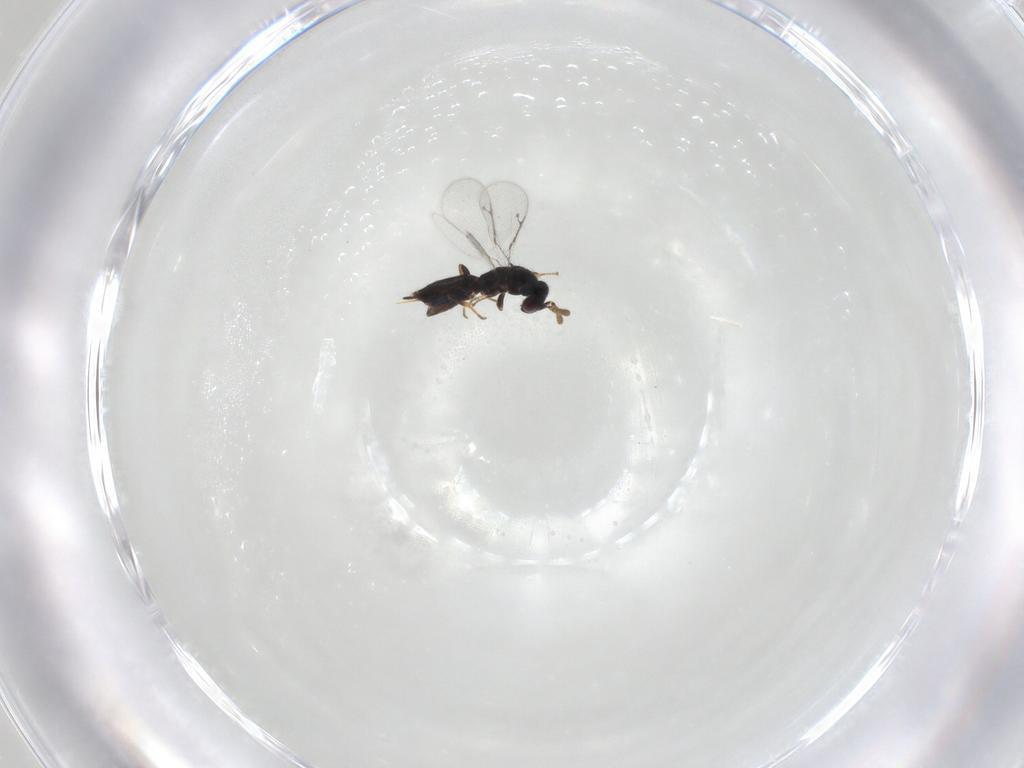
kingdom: Animalia
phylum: Arthropoda
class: Insecta
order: Hymenoptera
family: Pirenidae
